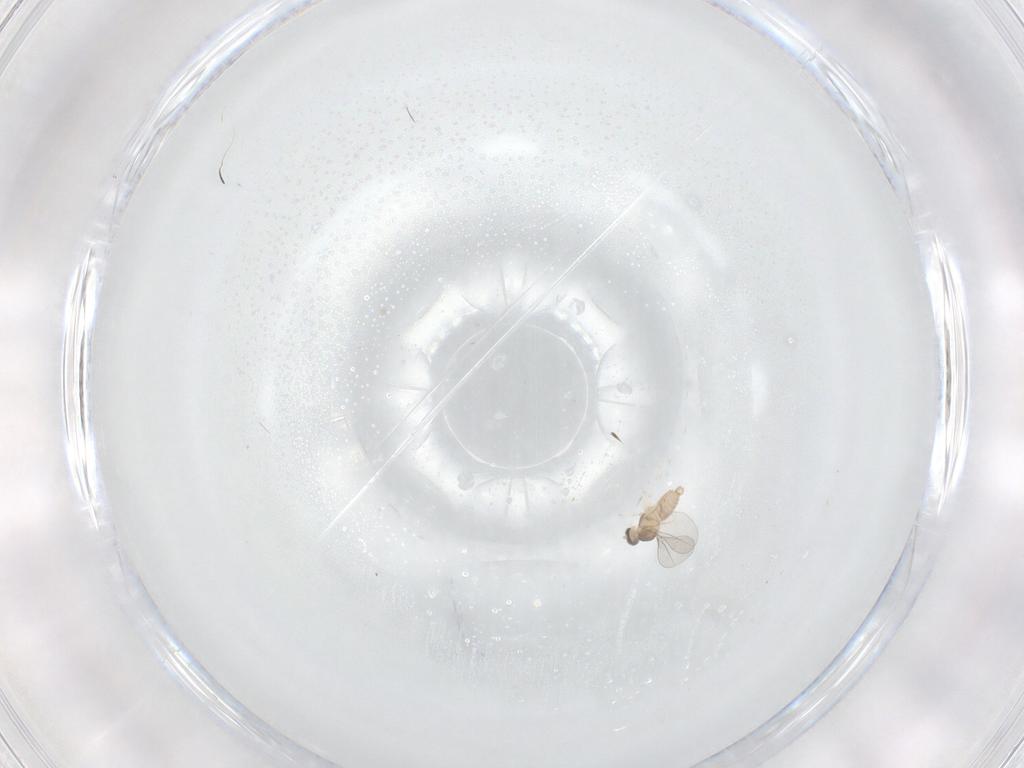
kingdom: Animalia
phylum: Arthropoda
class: Insecta
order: Diptera
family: Cecidomyiidae
